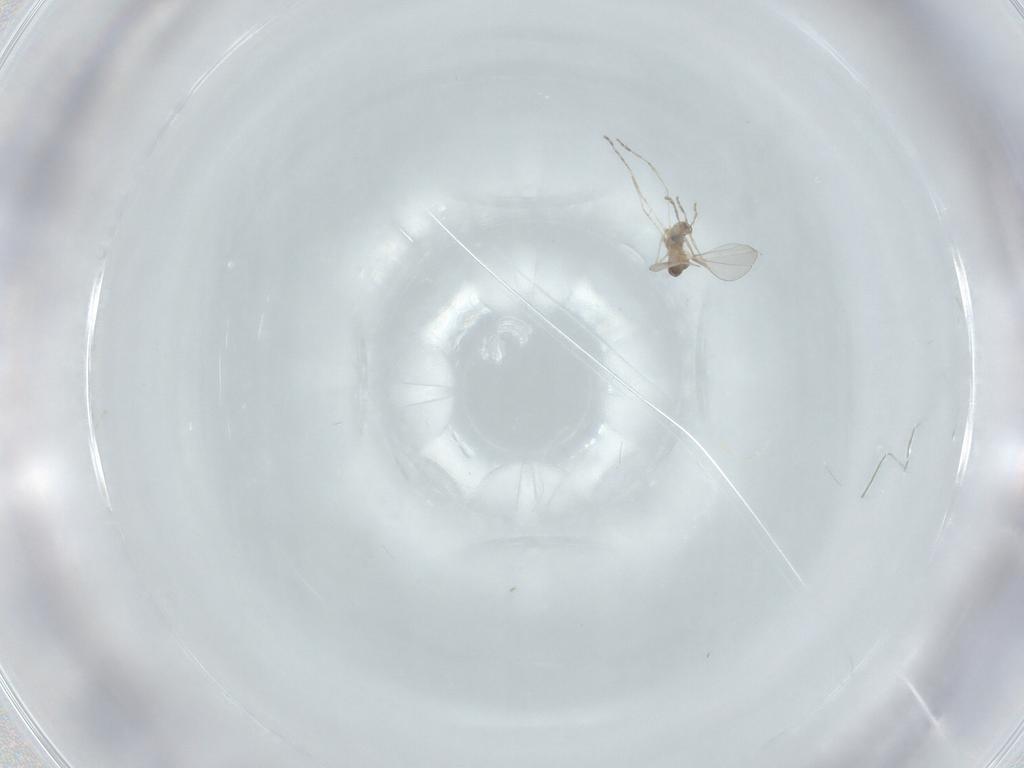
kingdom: Animalia
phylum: Arthropoda
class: Insecta
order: Diptera
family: Cecidomyiidae
